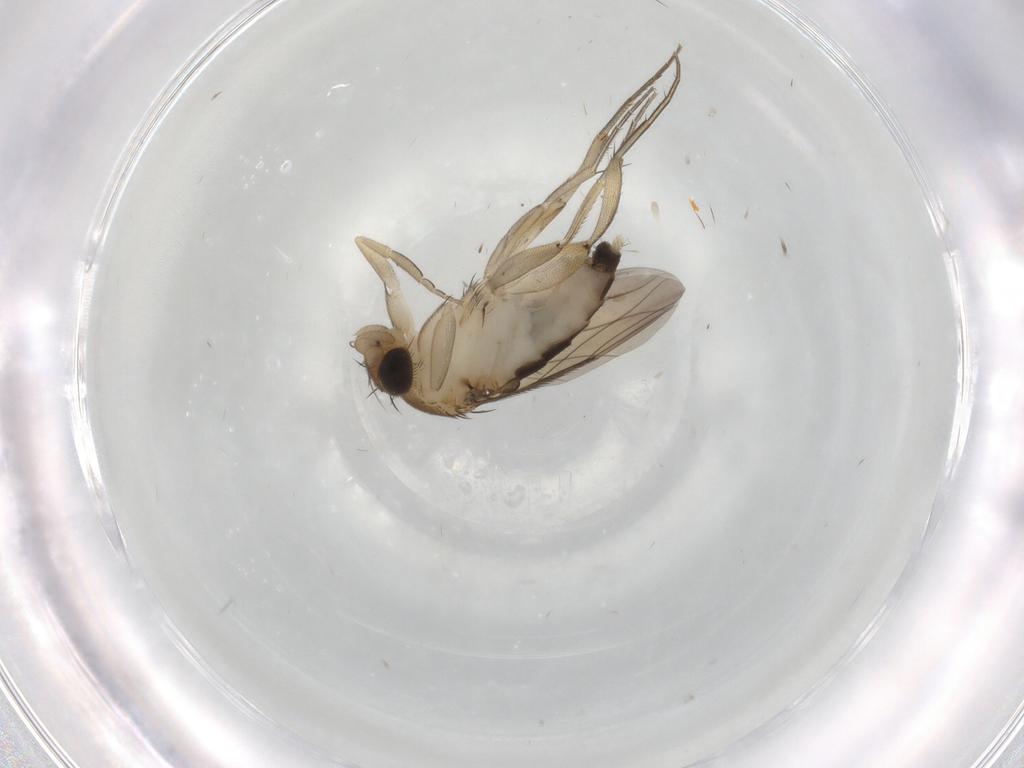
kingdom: Animalia
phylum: Arthropoda
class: Insecta
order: Diptera
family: Phoridae
